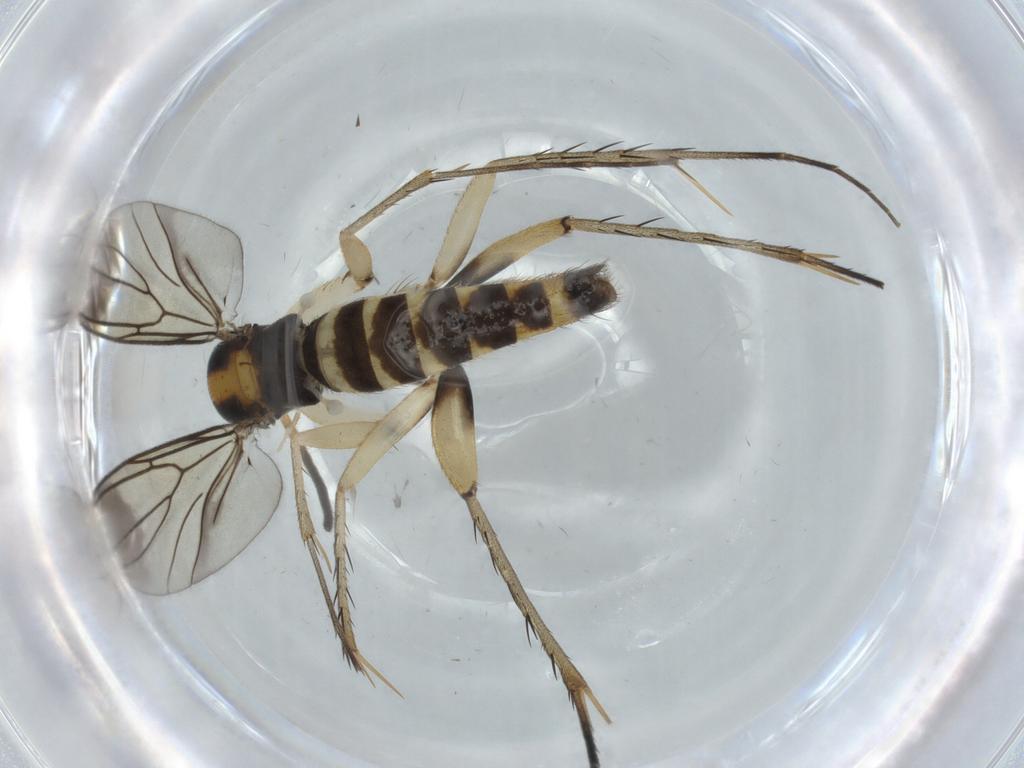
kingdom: Animalia
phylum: Arthropoda
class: Insecta
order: Diptera
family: Mycetophilidae
